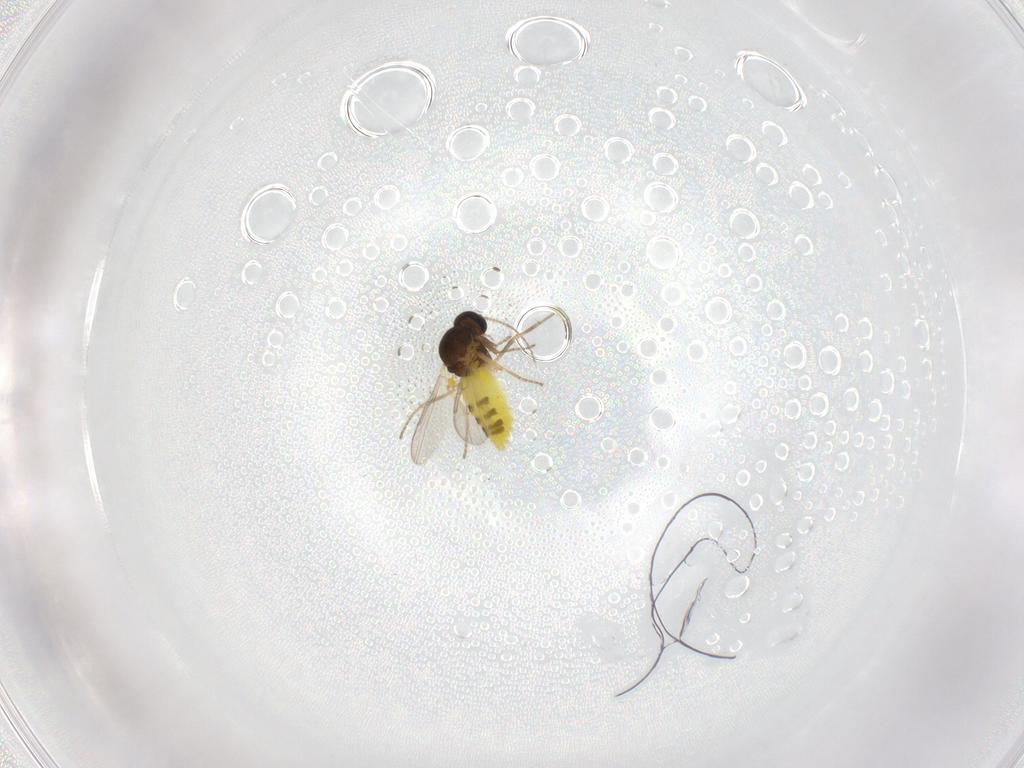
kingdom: Animalia
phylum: Arthropoda
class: Insecta
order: Diptera
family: Ceratopogonidae
